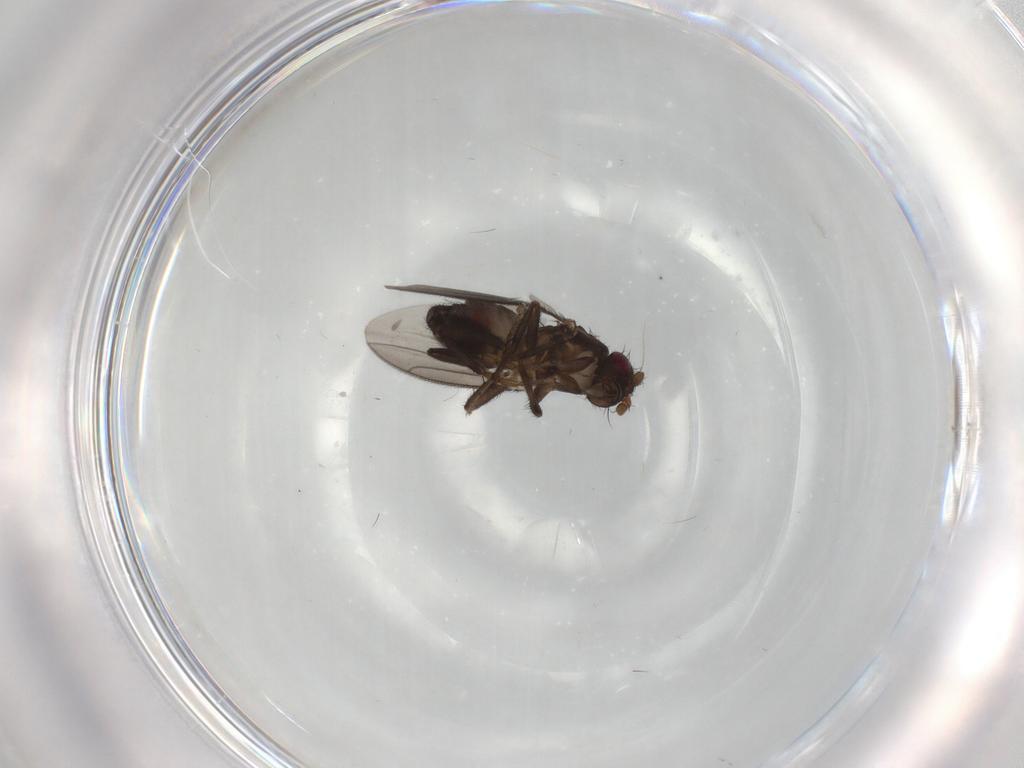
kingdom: Animalia
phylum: Arthropoda
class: Insecta
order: Diptera
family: Sphaeroceridae
